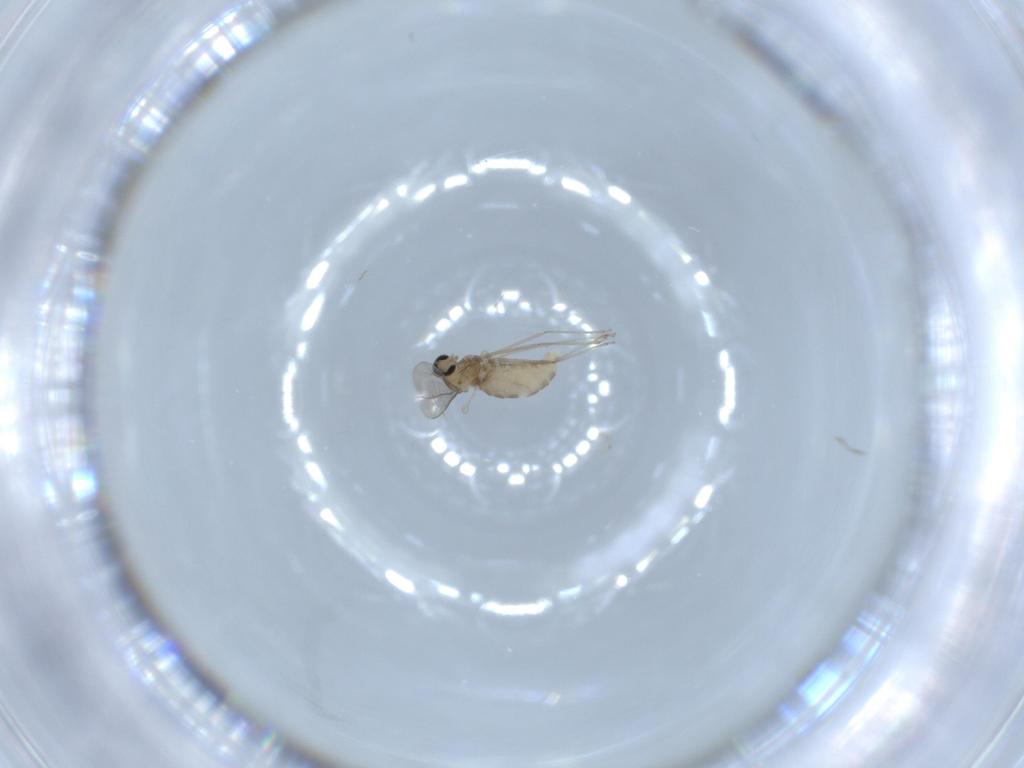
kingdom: Animalia
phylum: Arthropoda
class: Insecta
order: Diptera
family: Cecidomyiidae
